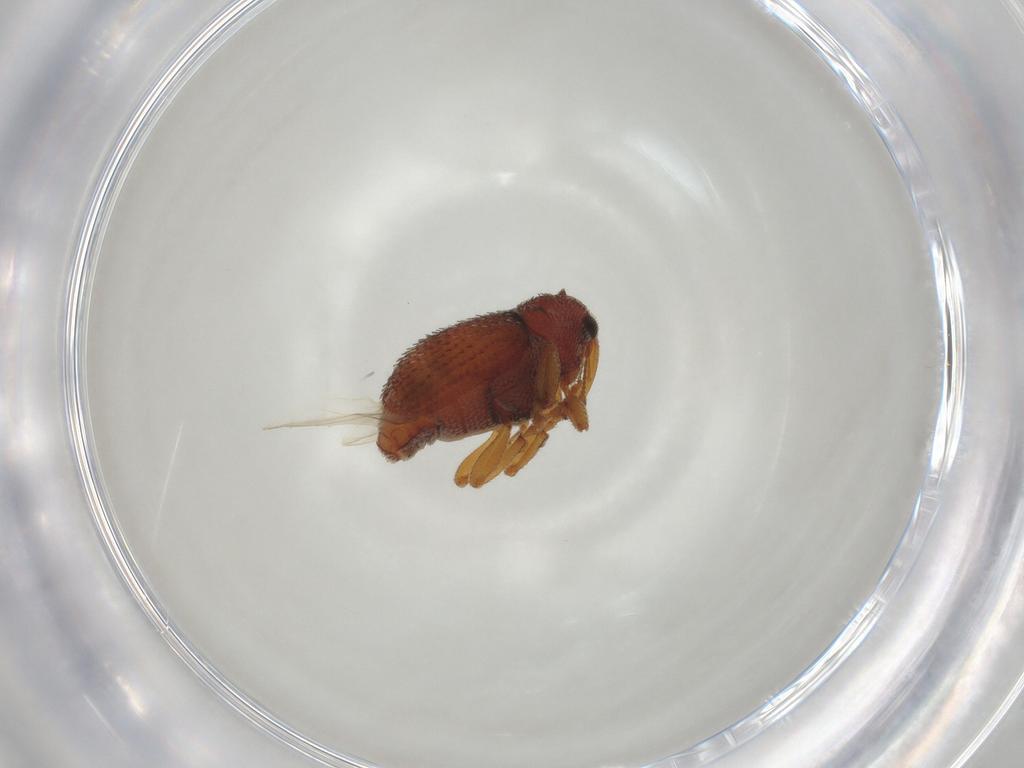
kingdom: Animalia
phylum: Arthropoda
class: Insecta
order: Coleoptera
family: Curculionidae
